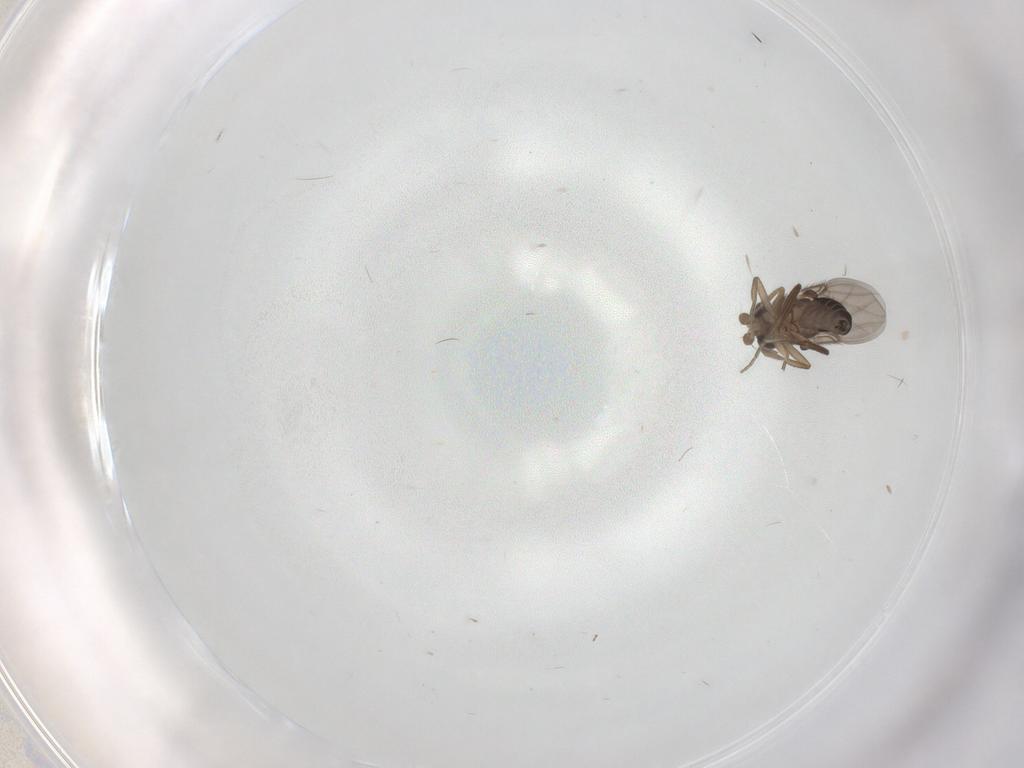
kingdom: Animalia
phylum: Arthropoda
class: Insecta
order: Diptera
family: Phoridae
